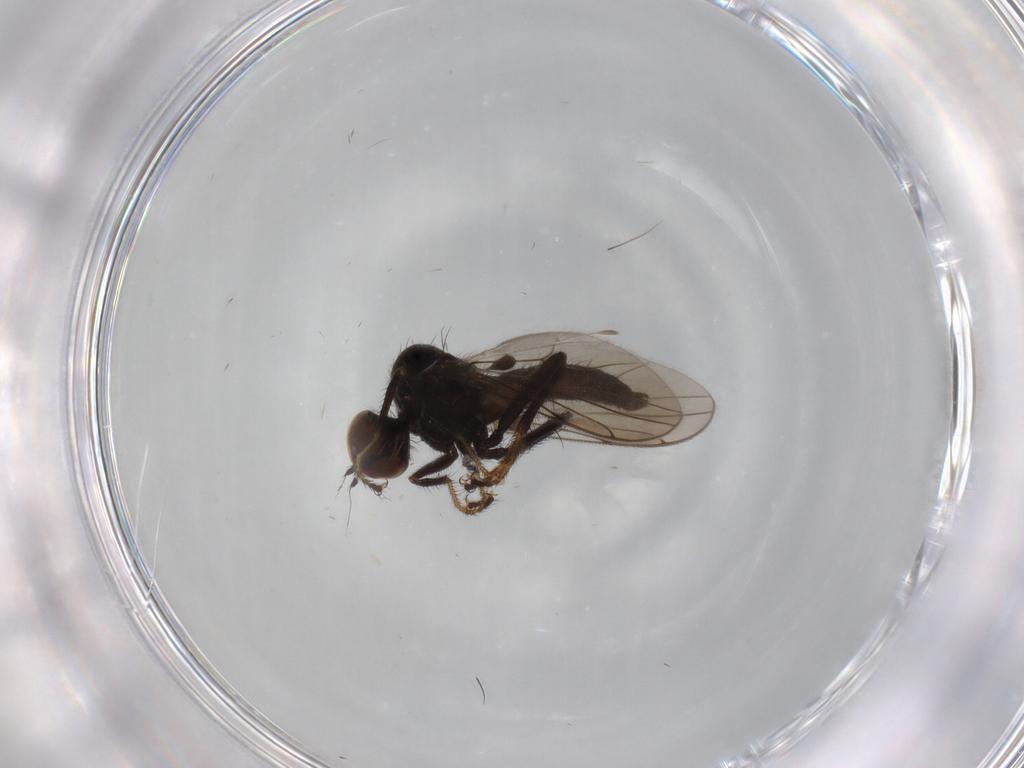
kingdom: Animalia
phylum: Arthropoda
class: Insecta
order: Diptera
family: Hybotidae
